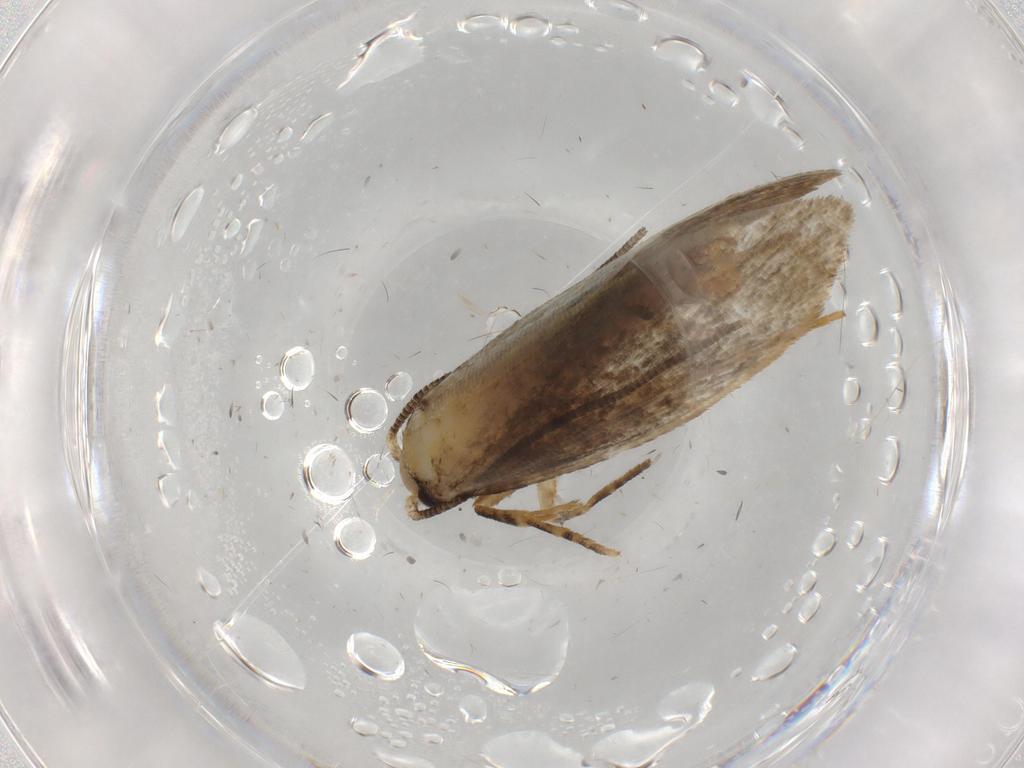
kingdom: Animalia
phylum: Arthropoda
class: Insecta
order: Lepidoptera
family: Tineidae
